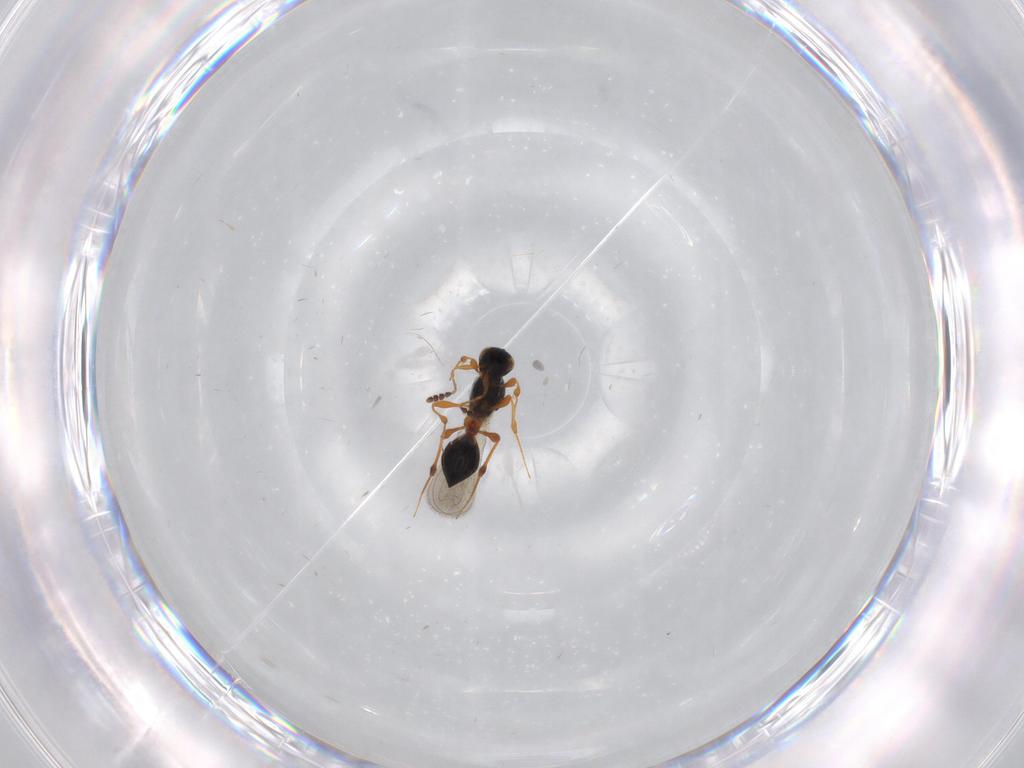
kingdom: Animalia
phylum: Arthropoda
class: Insecta
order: Hymenoptera
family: Platygastridae
